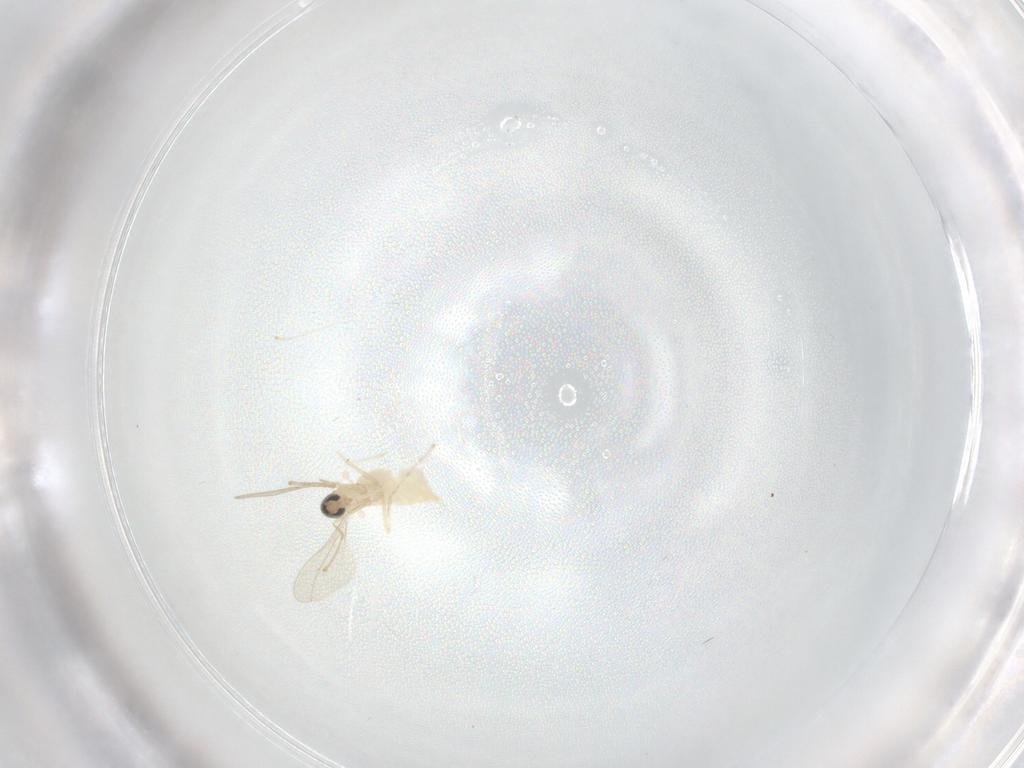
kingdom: Animalia
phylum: Arthropoda
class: Insecta
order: Diptera
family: Cecidomyiidae
